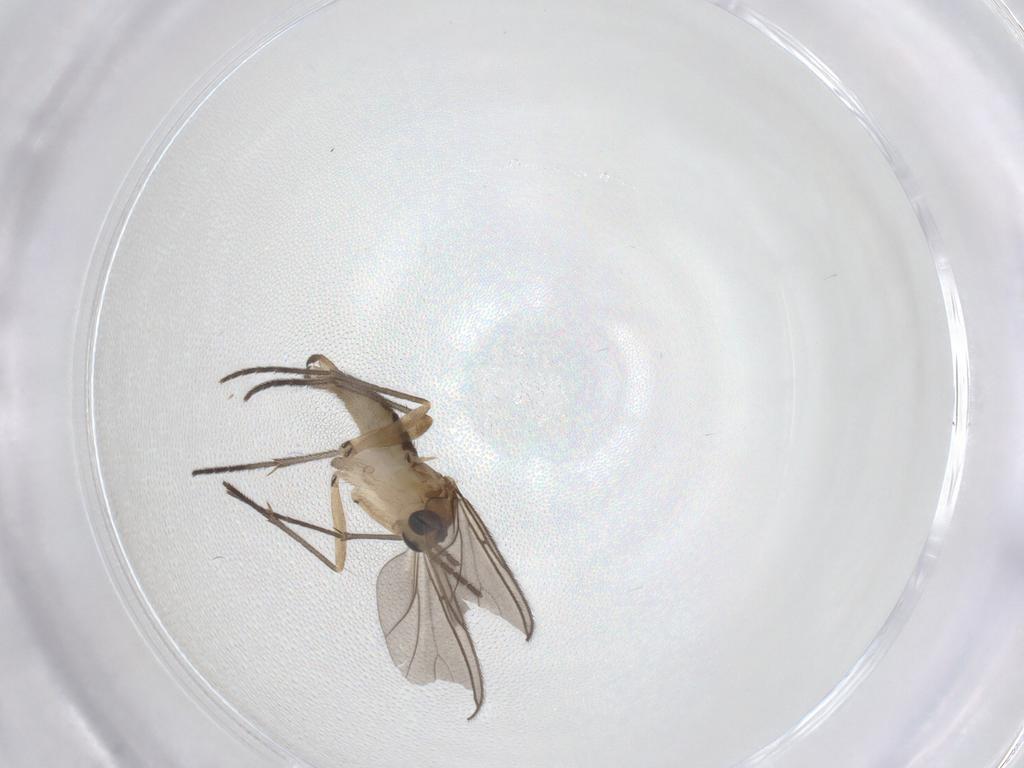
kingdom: Animalia
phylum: Arthropoda
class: Insecta
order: Diptera
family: Sciaridae
